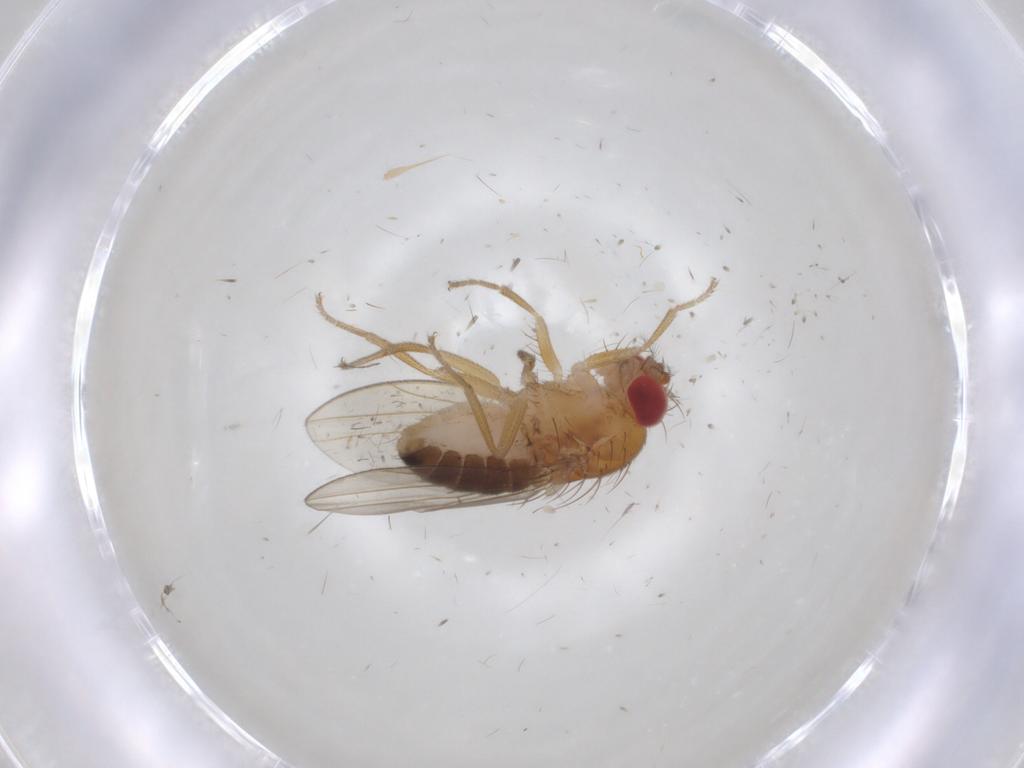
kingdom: Animalia
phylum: Arthropoda
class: Insecta
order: Diptera
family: Drosophilidae
